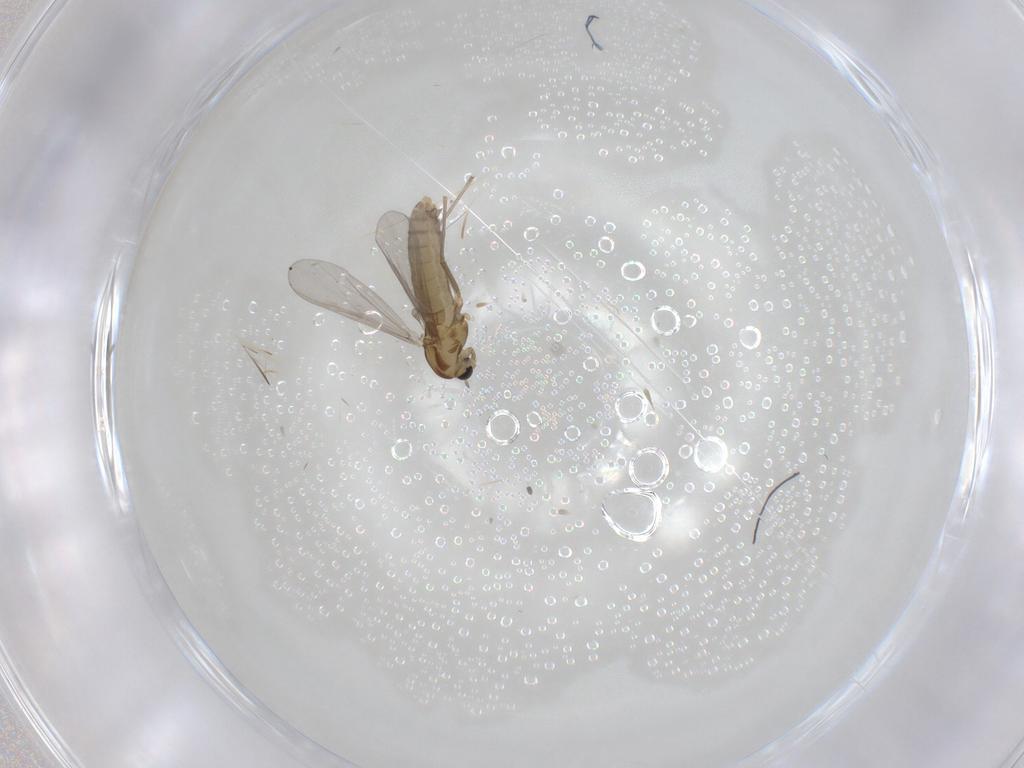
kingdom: Animalia
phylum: Arthropoda
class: Insecta
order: Diptera
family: Chironomidae
